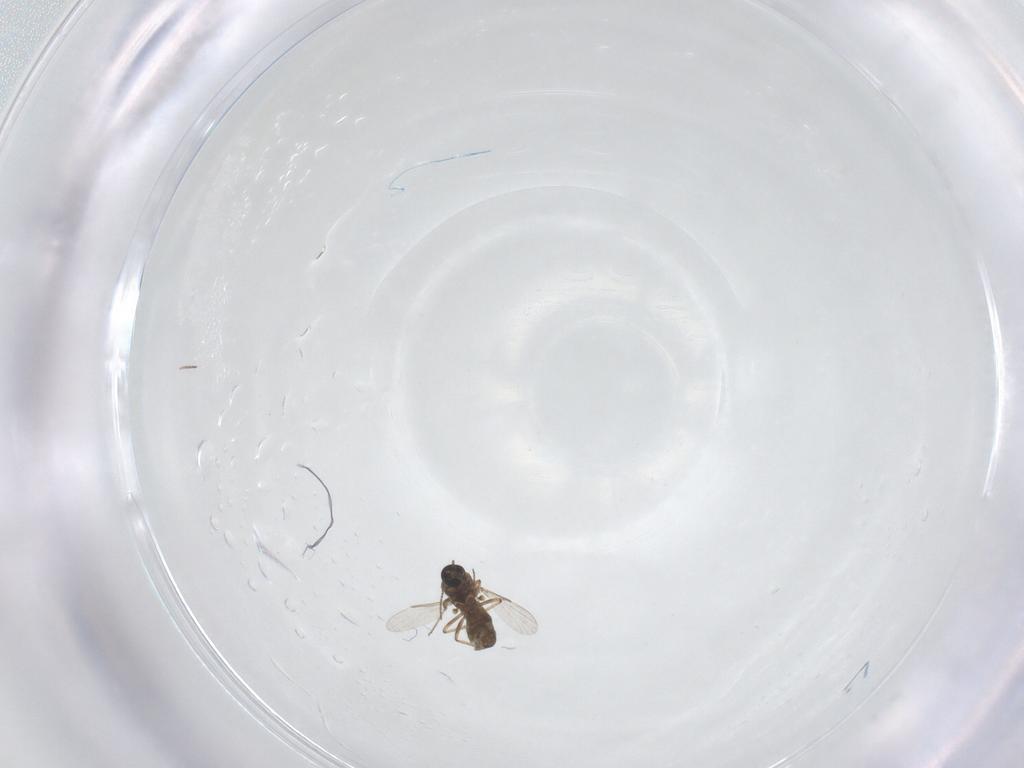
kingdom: Animalia
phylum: Arthropoda
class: Insecta
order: Diptera
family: Ceratopogonidae
